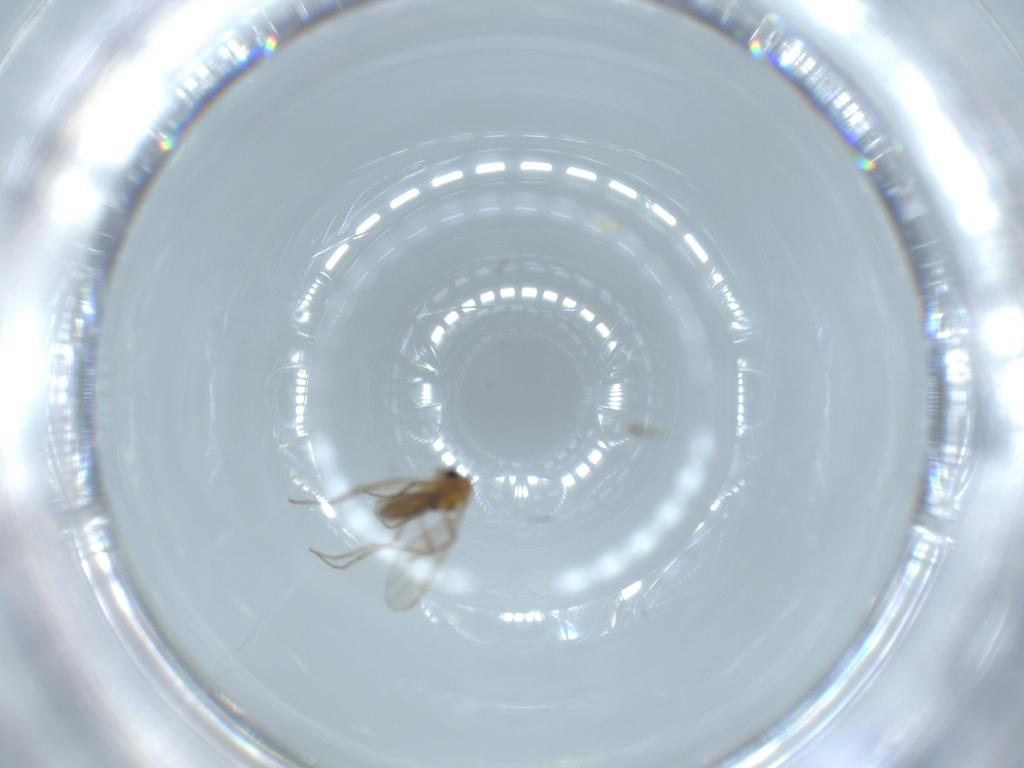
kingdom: Animalia
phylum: Arthropoda
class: Insecta
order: Diptera
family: Chironomidae
